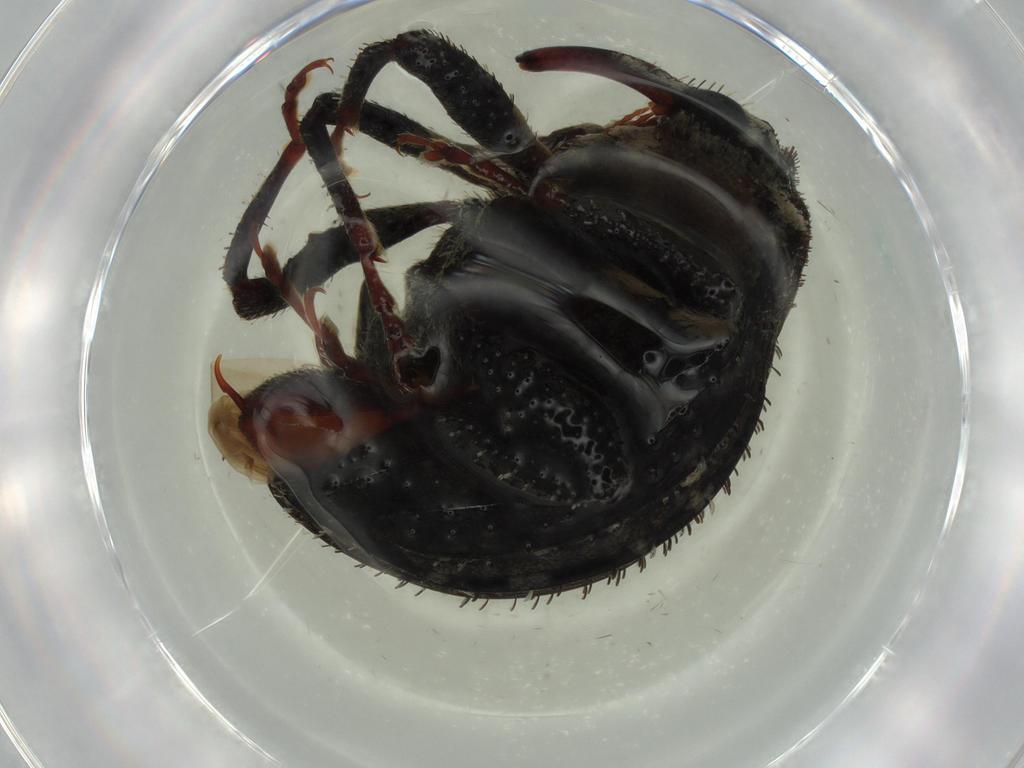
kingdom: Animalia
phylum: Arthropoda
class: Insecta
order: Coleoptera
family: Curculionidae
